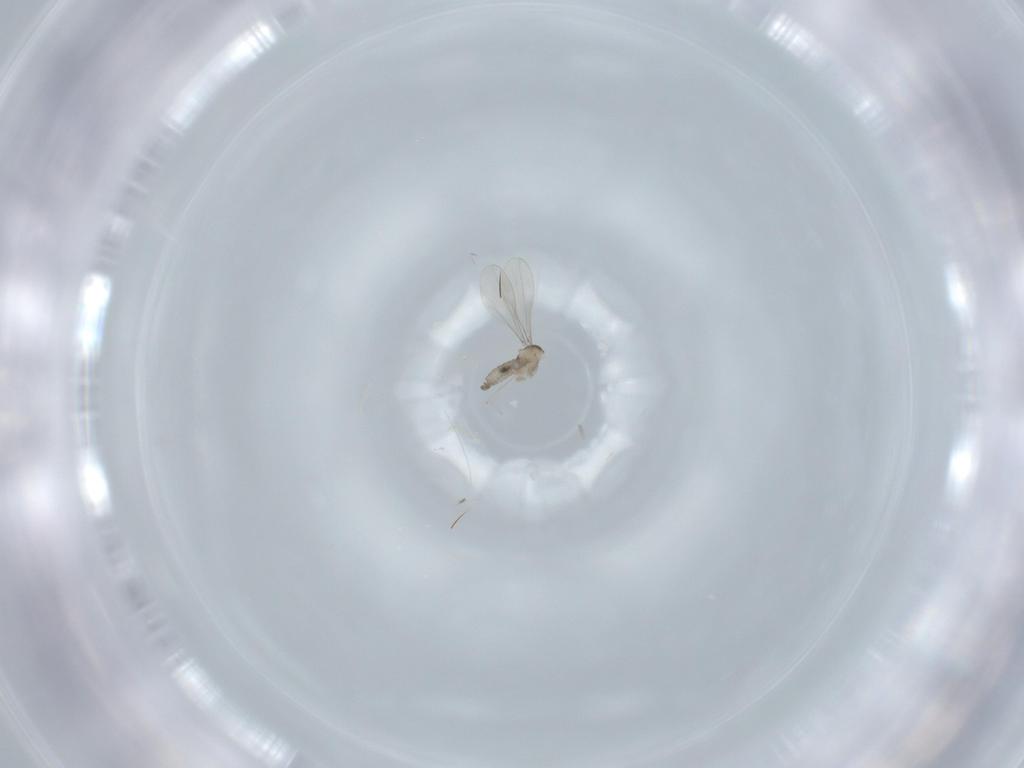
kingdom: Animalia
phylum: Arthropoda
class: Insecta
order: Diptera
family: Cecidomyiidae
